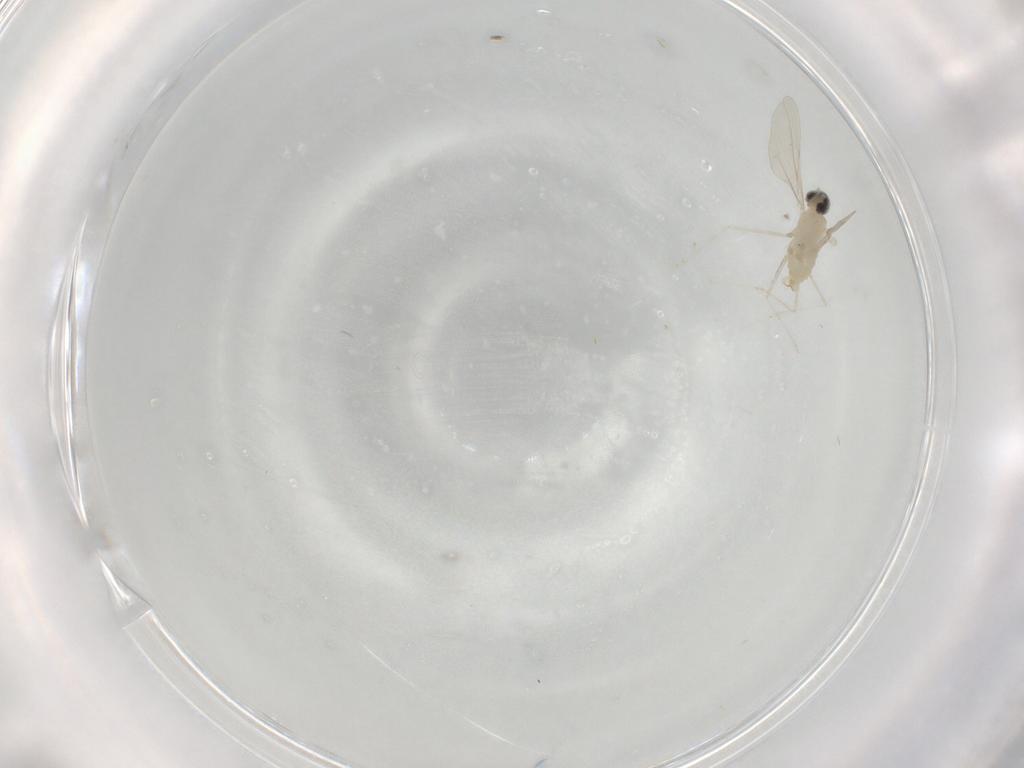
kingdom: Animalia
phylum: Arthropoda
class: Insecta
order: Diptera
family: Cecidomyiidae
